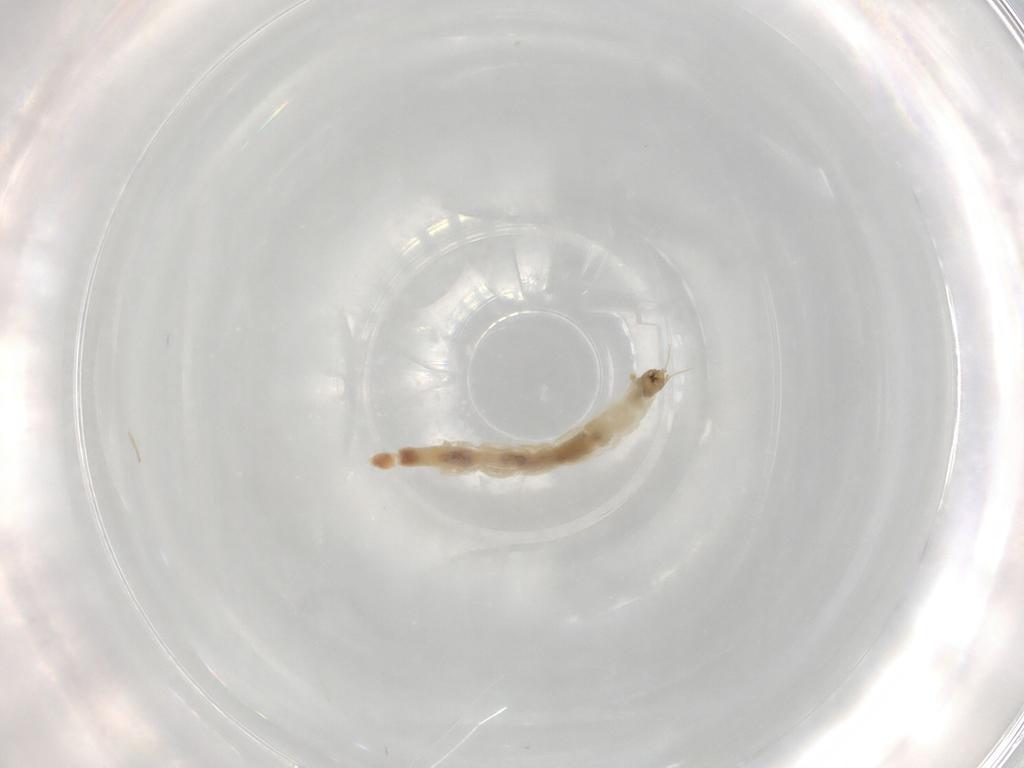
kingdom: Animalia
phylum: Arthropoda
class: Insecta
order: Diptera
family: Chironomidae
